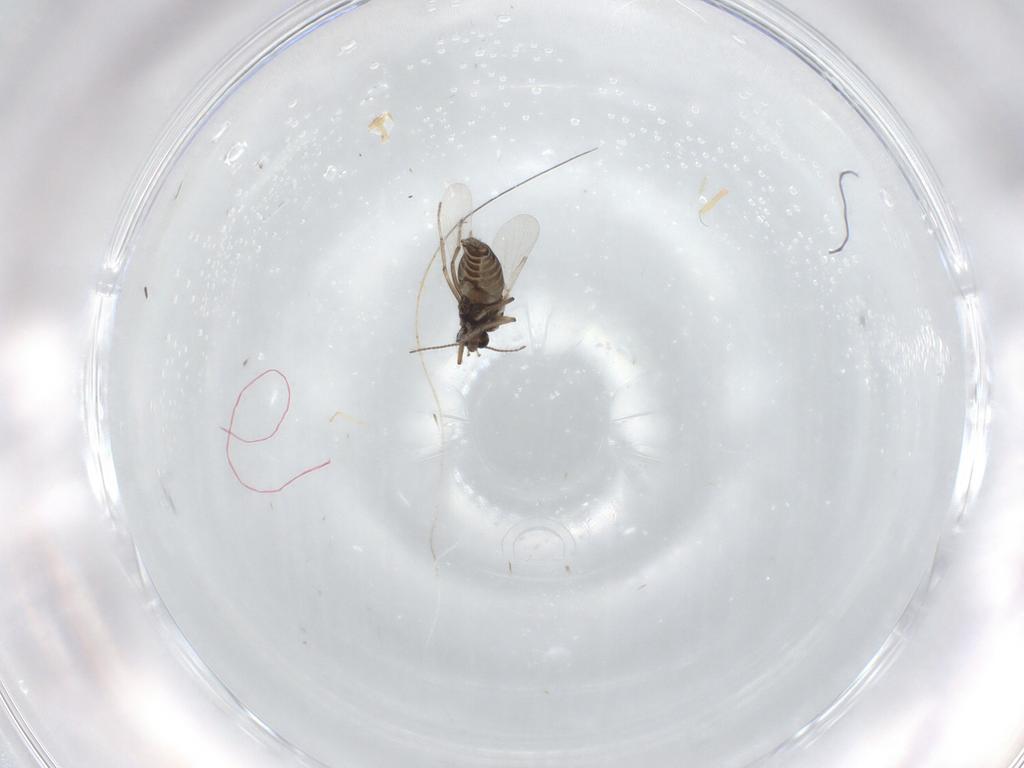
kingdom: Animalia
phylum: Arthropoda
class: Insecta
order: Diptera
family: Ceratopogonidae
